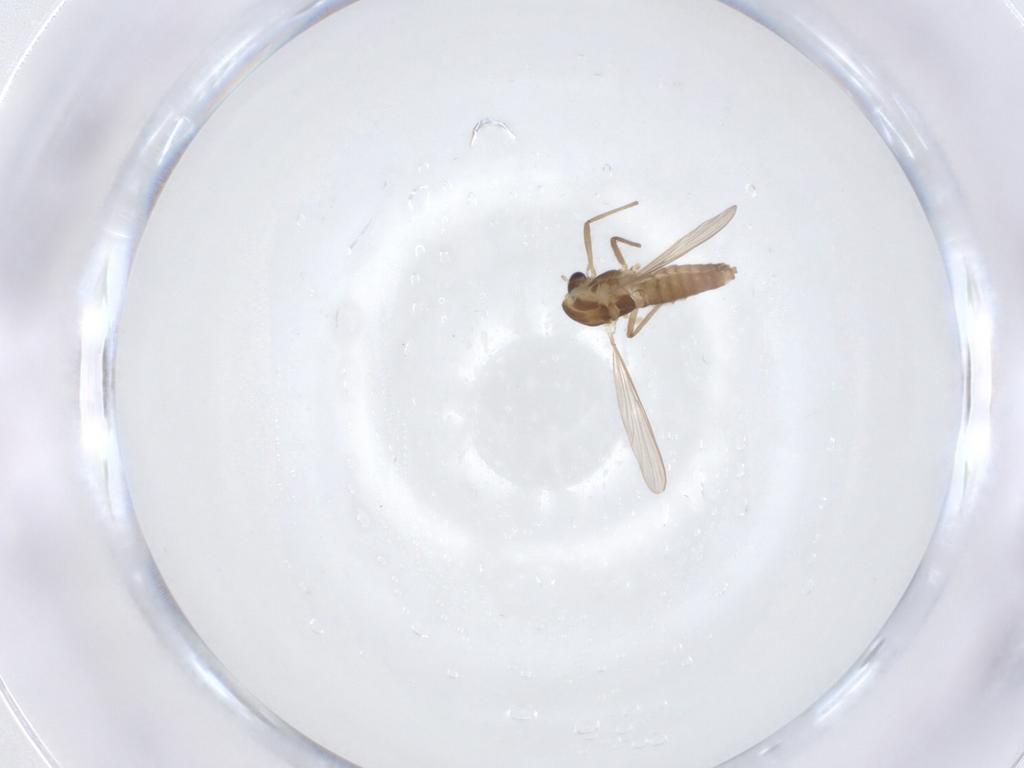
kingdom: Animalia
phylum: Arthropoda
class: Insecta
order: Diptera
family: Chironomidae
